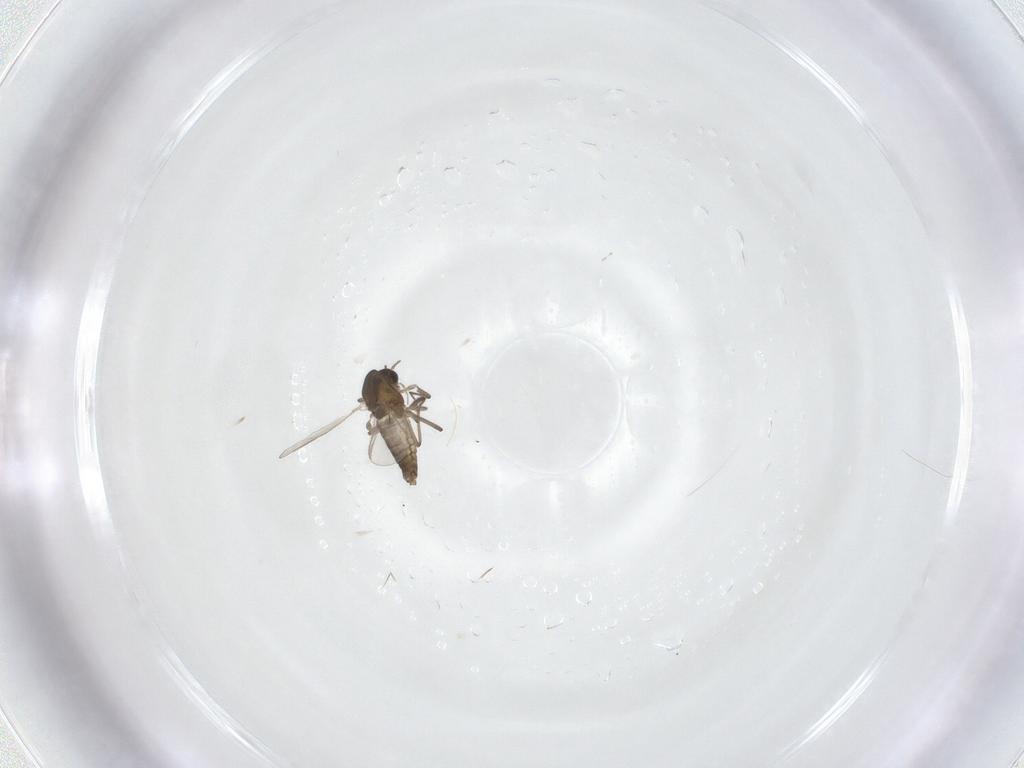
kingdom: Animalia
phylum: Arthropoda
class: Insecta
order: Diptera
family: Chironomidae
